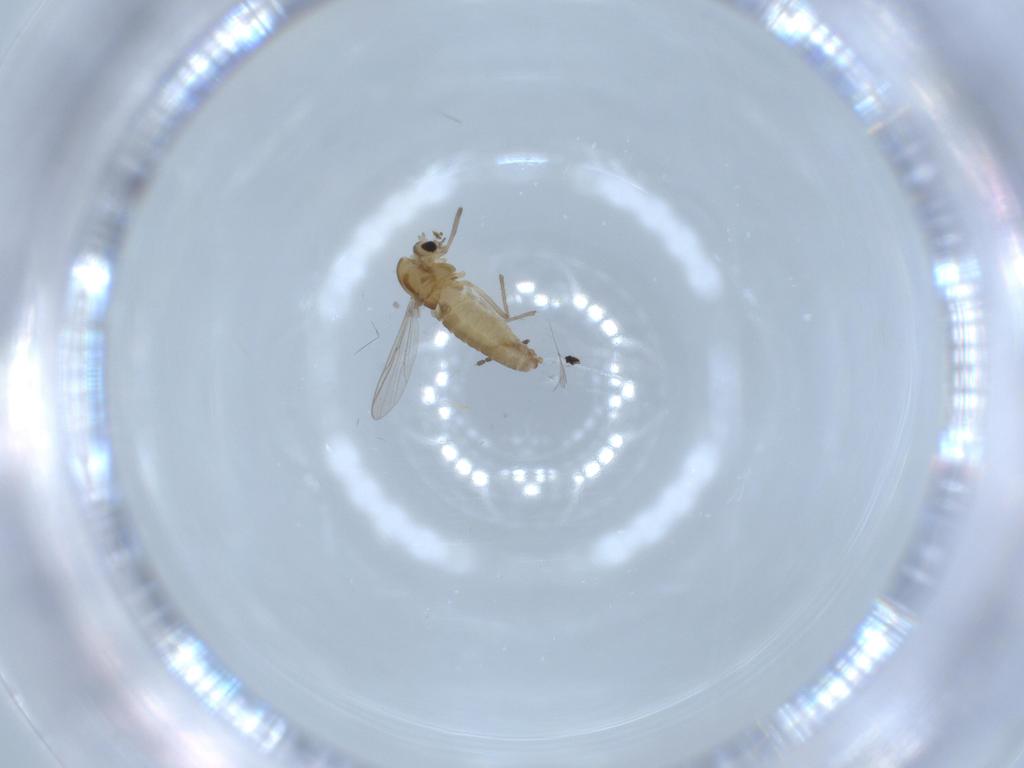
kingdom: Animalia
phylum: Arthropoda
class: Insecta
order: Diptera
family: Chironomidae
